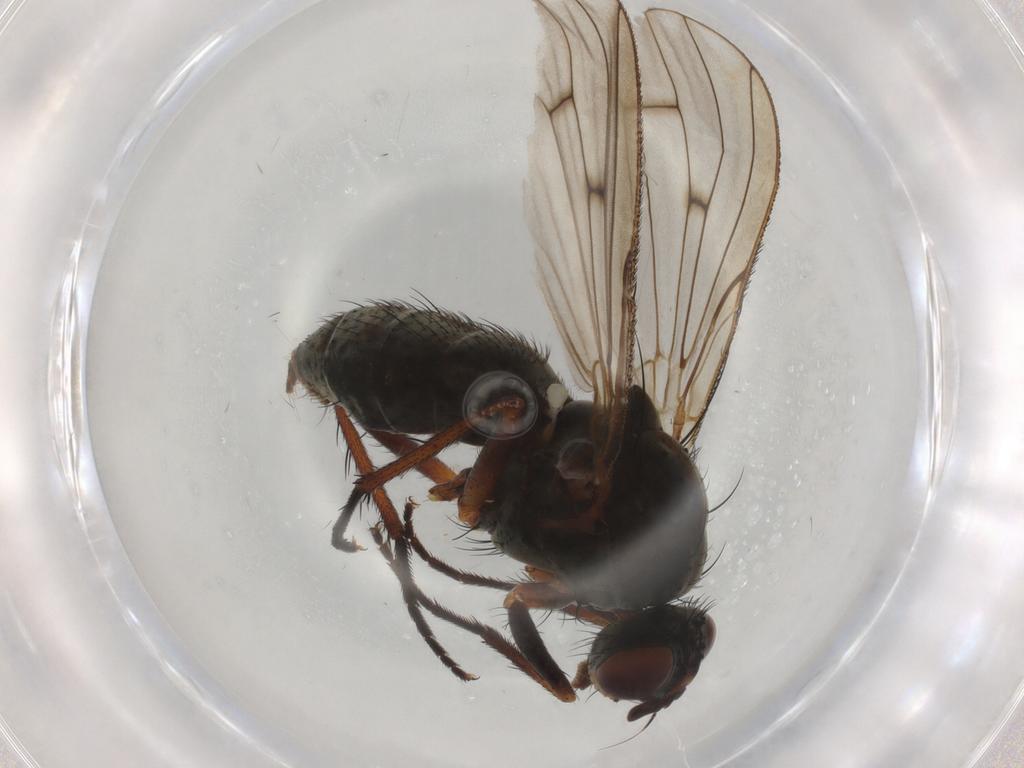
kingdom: Animalia
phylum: Arthropoda
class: Insecta
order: Diptera
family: Anthomyiidae
